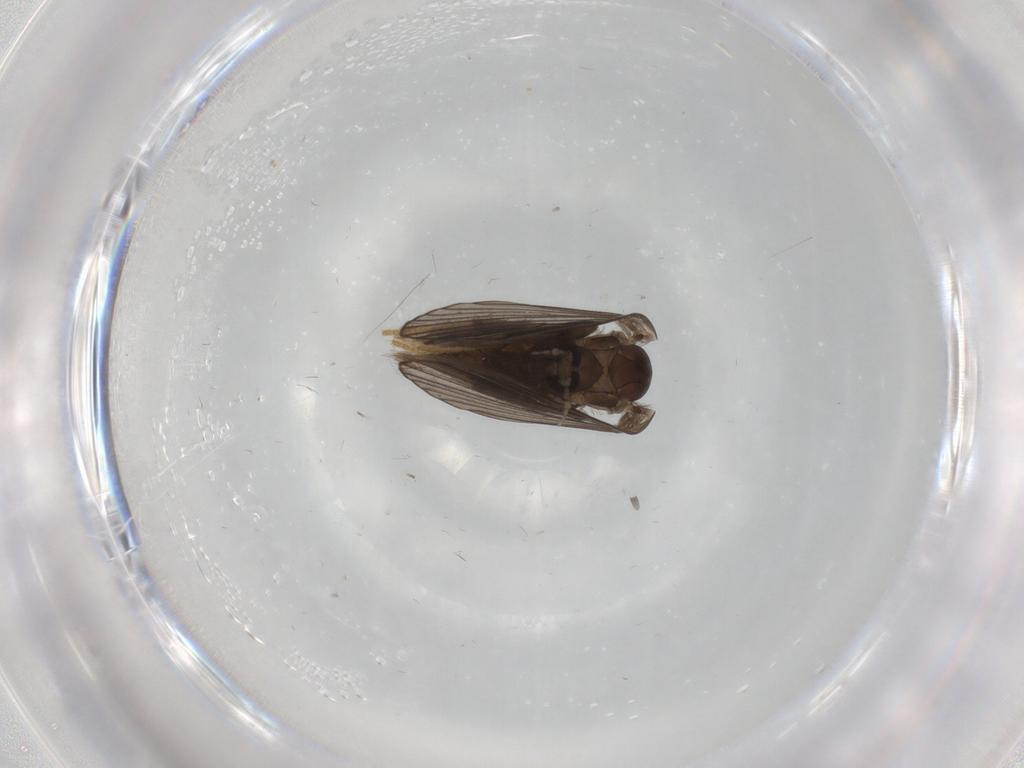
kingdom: Animalia
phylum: Arthropoda
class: Insecta
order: Diptera
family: Psychodidae
